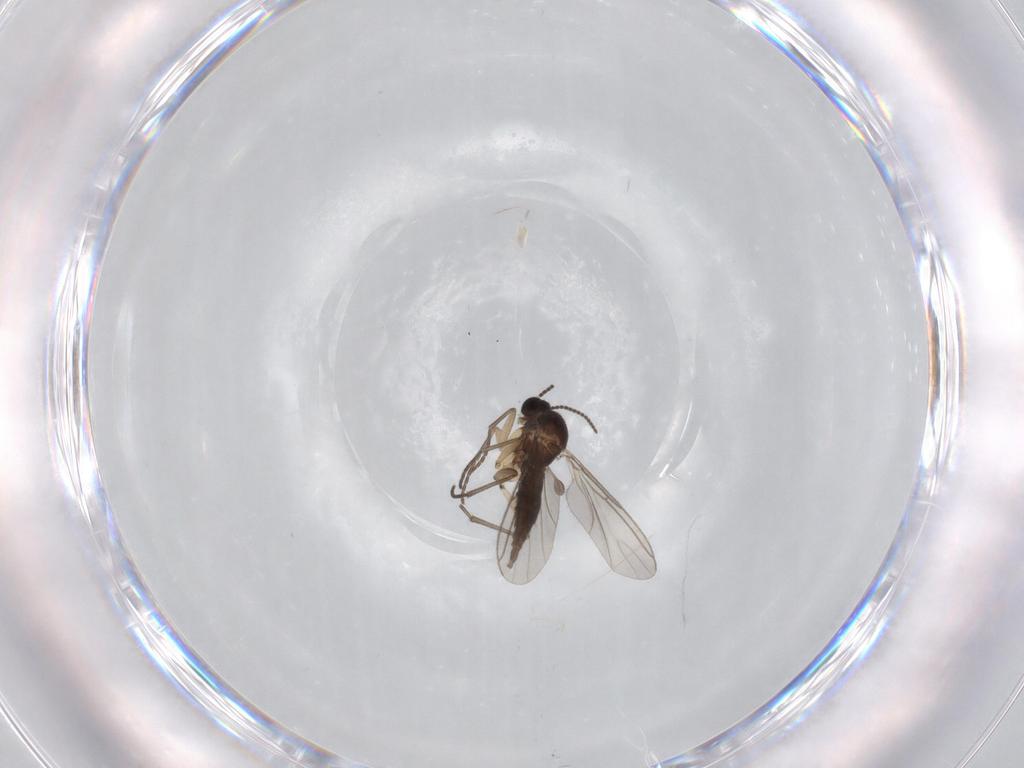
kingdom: Animalia
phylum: Arthropoda
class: Insecta
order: Diptera
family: Sciaridae
